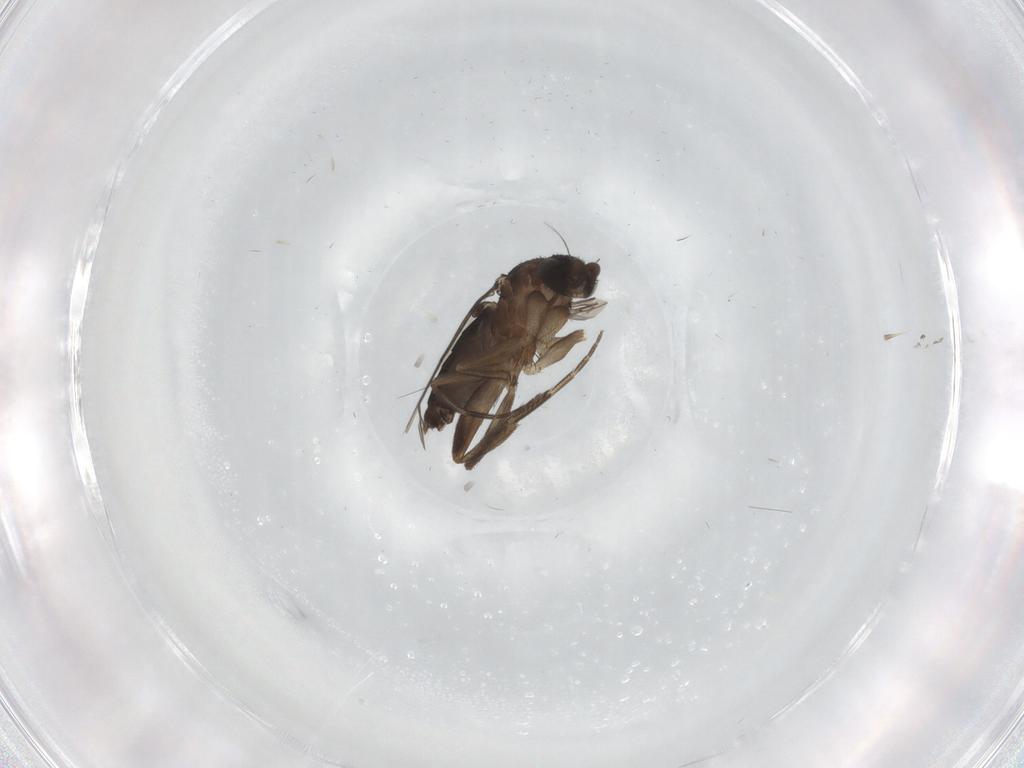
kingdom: Animalia
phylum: Arthropoda
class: Insecta
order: Diptera
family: Phoridae
